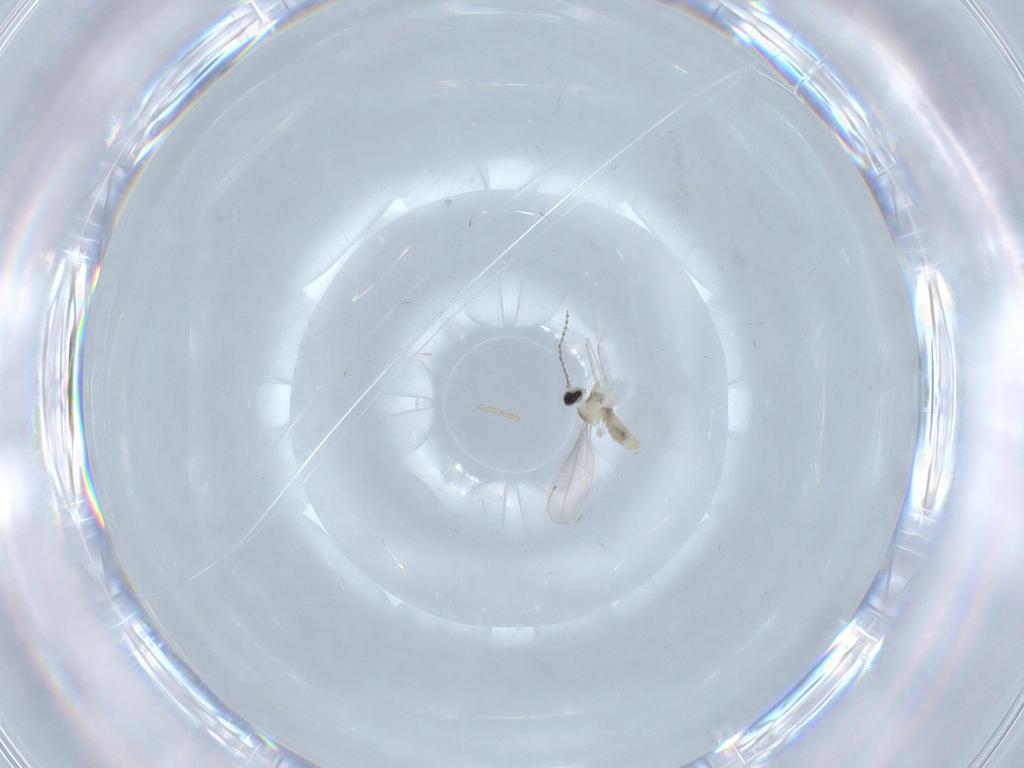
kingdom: Animalia
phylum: Arthropoda
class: Insecta
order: Diptera
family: Cecidomyiidae
